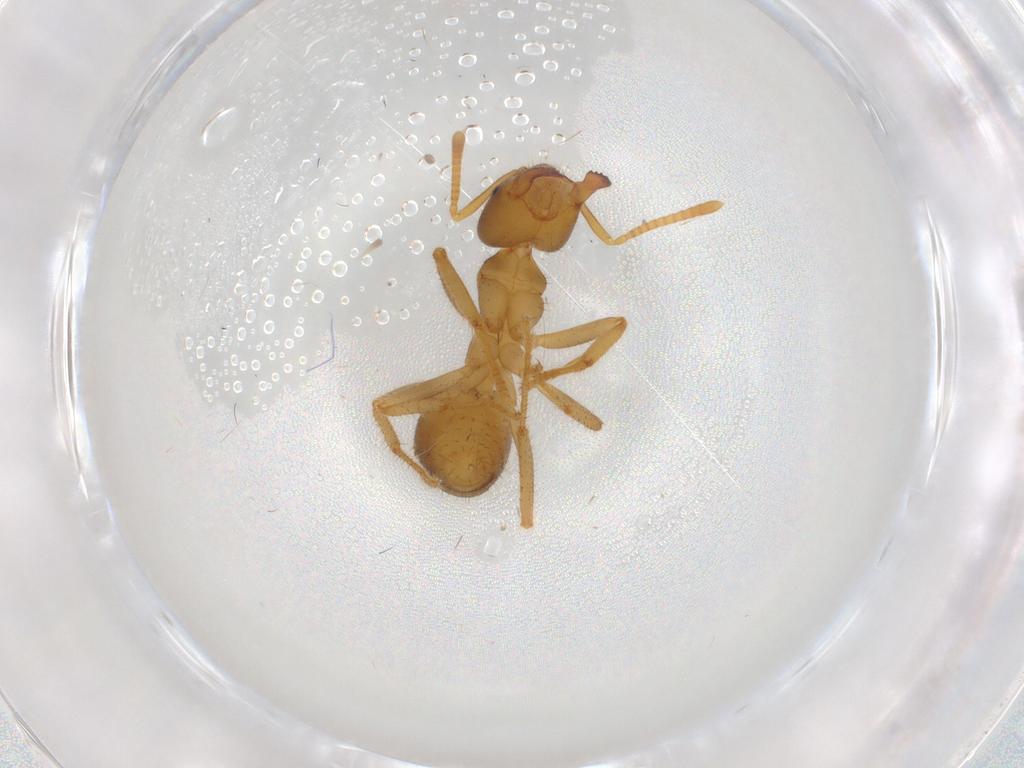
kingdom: Animalia
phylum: Arthropoda
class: Insecta
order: Hymenoptera
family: Formicidae
